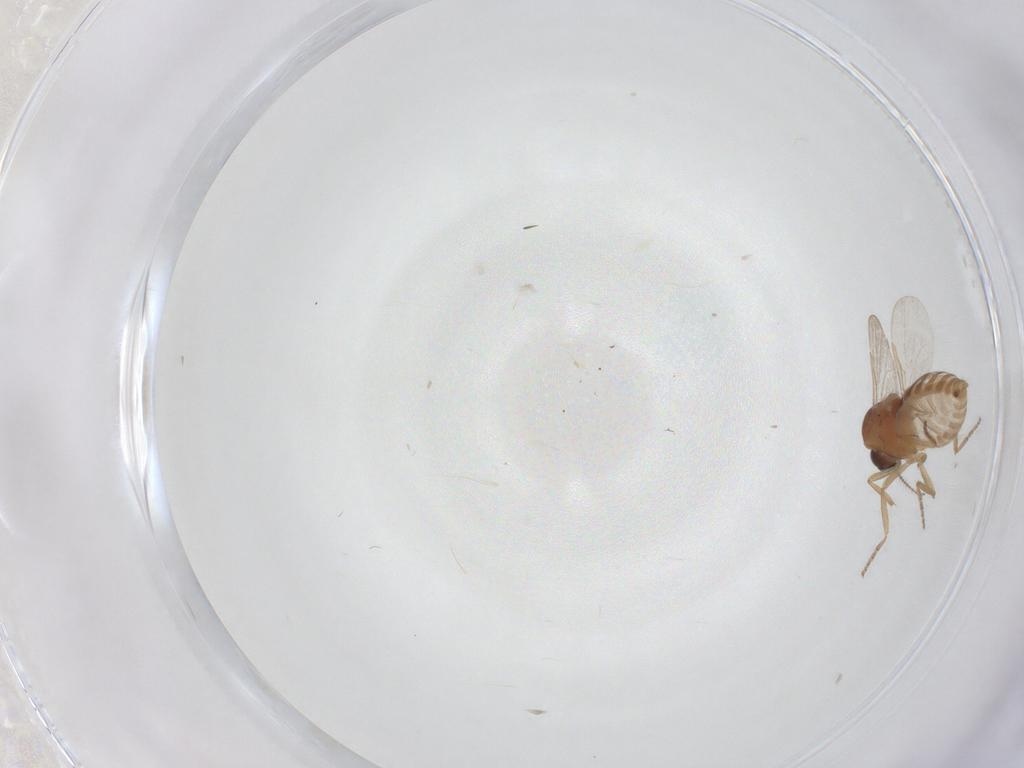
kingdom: Animalia
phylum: Arthropoda
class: Insecta
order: Diptera
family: Ceratopogonidae
